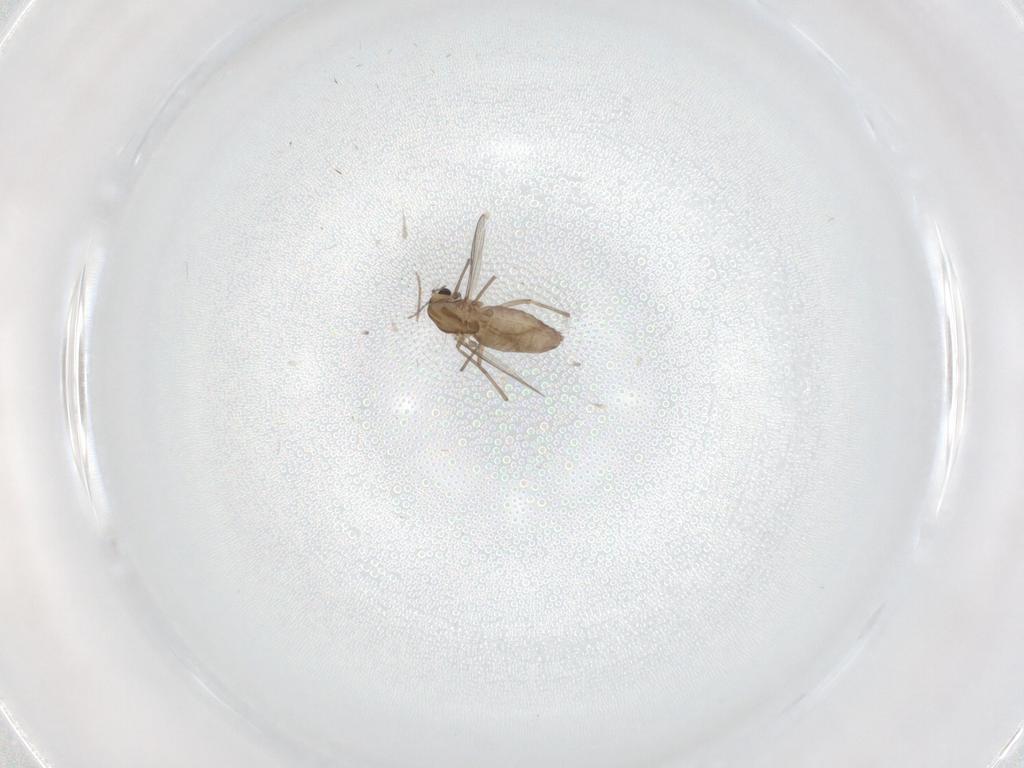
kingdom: Animalia
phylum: Arthropoda
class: Insecta
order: Diptera
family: Chironomidae
